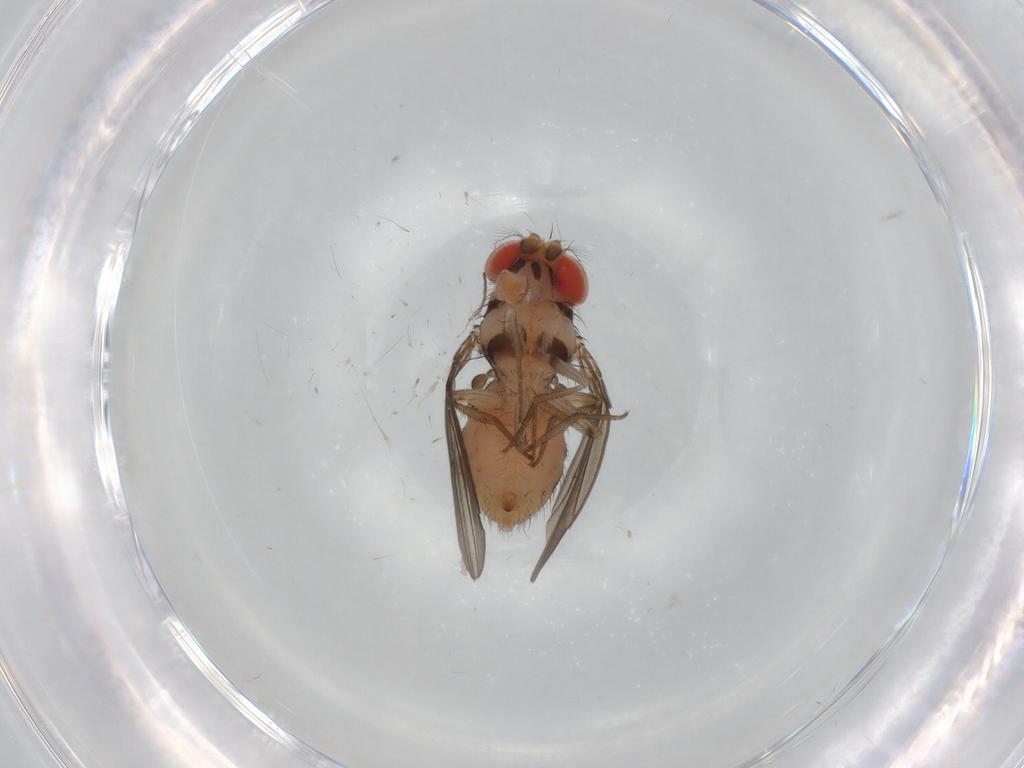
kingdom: Animalia
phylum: Arthropoda
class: Insecta
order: Diptera
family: Drosophilidae
